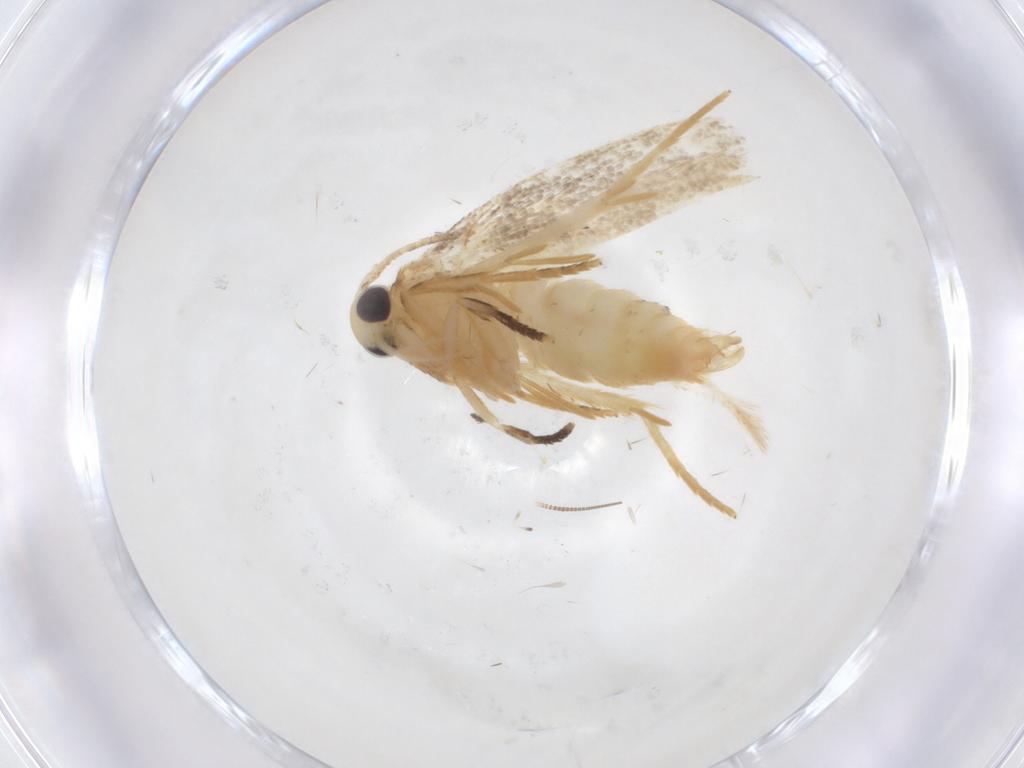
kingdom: Animalia
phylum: Arthropoda
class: Insecta
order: Lepidoptera
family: Erebidae
